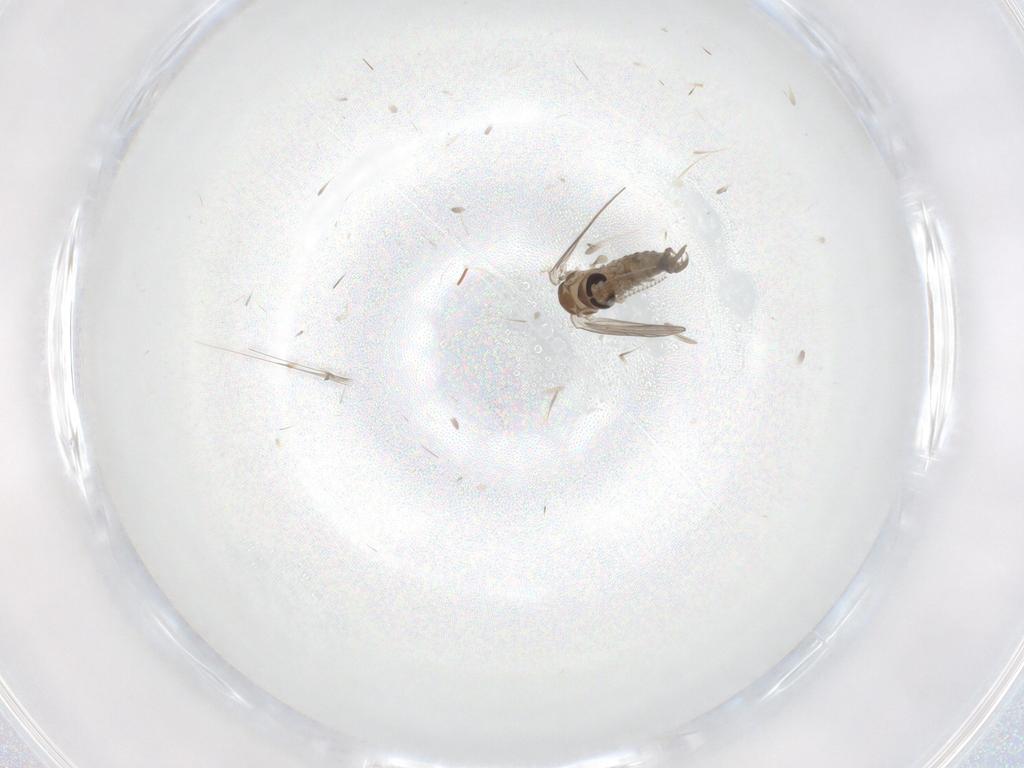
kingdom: Animalia
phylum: Arthropoda
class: Insecta
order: Diptera
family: Psychodidae
